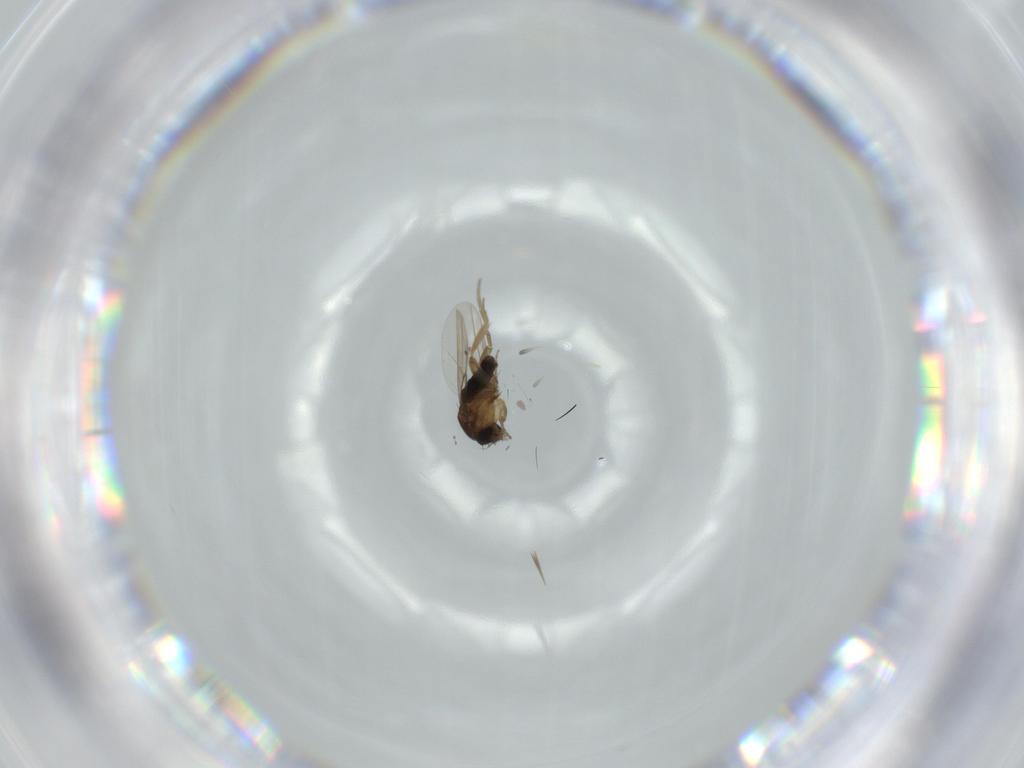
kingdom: Animalia
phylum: Arthropoda
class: Insecta
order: Diptera
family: Phoridae
